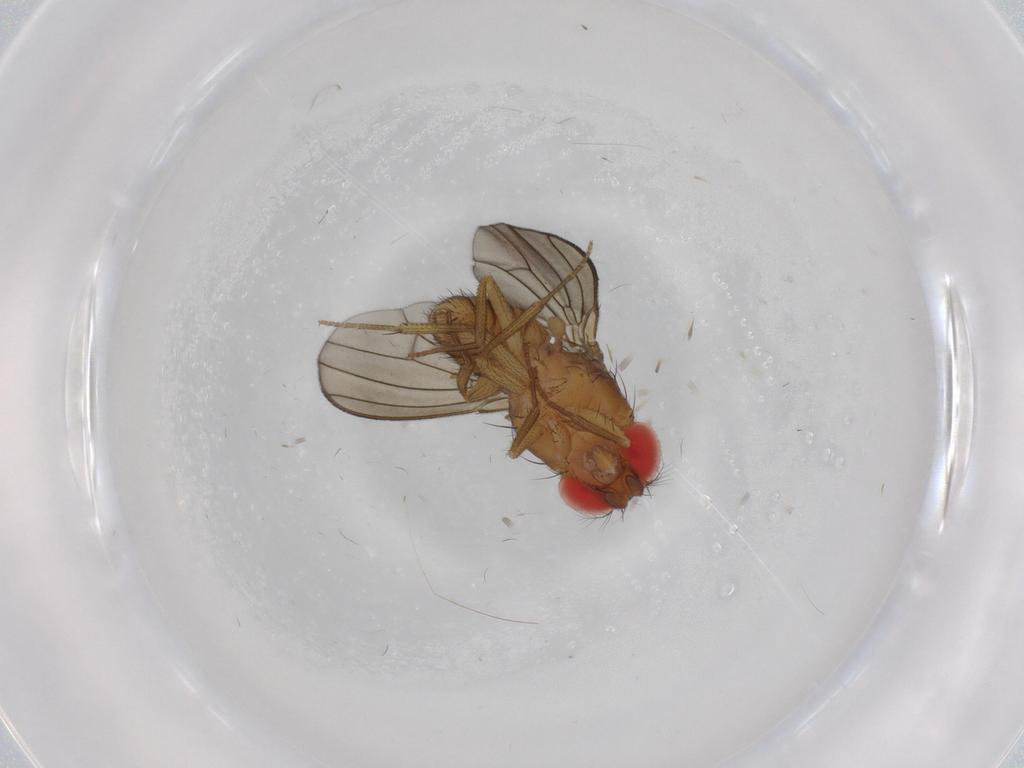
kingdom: Animalia
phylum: Arthropoda
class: Insecta
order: Diptera
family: Drosophilidae
